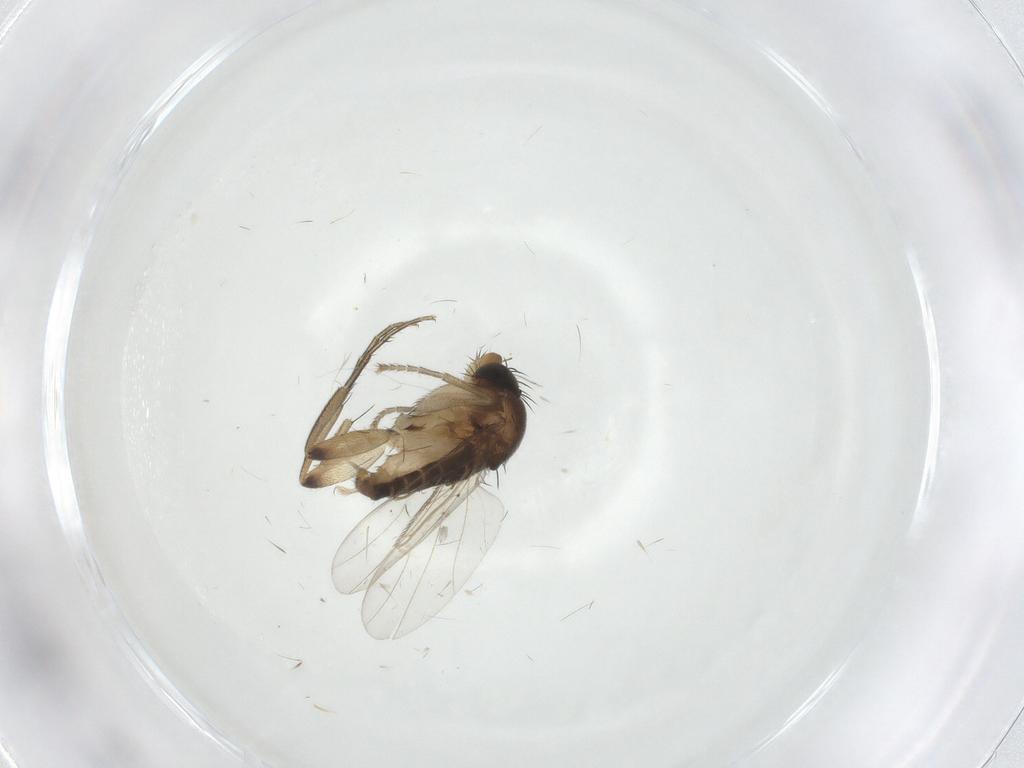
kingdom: Animalia
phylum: Arthropoda
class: Insecta
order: Diptera
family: Phoridae
